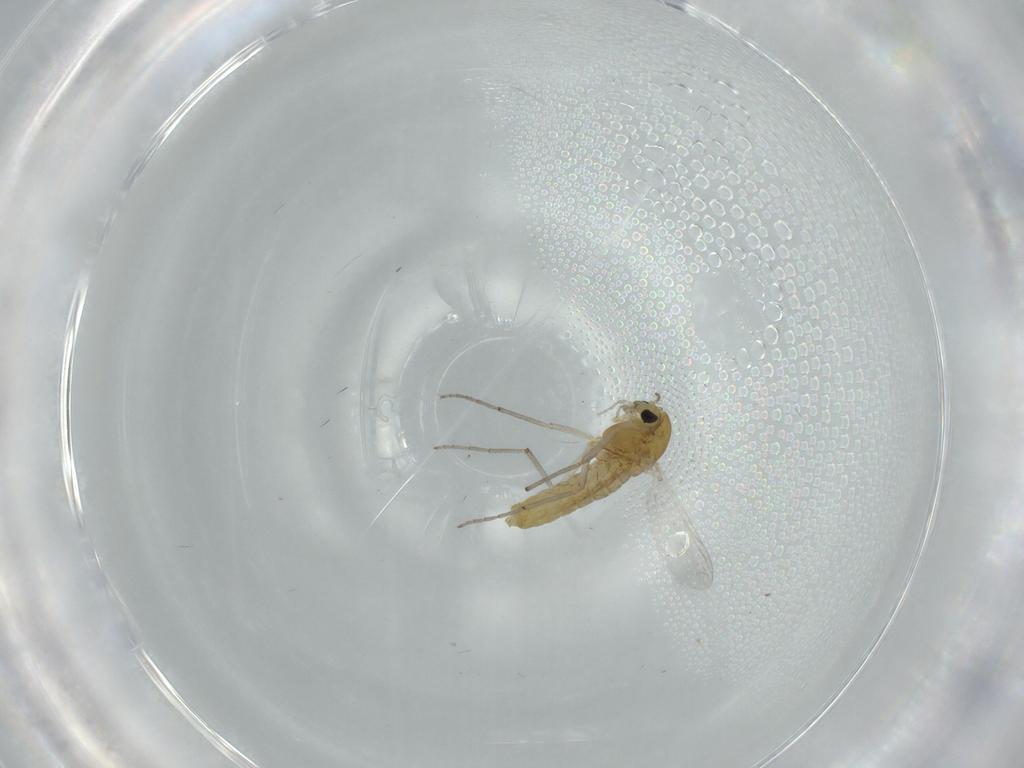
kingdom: Animalia
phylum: Arthropoda
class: Insecta
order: Diptera
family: Chironomidae
